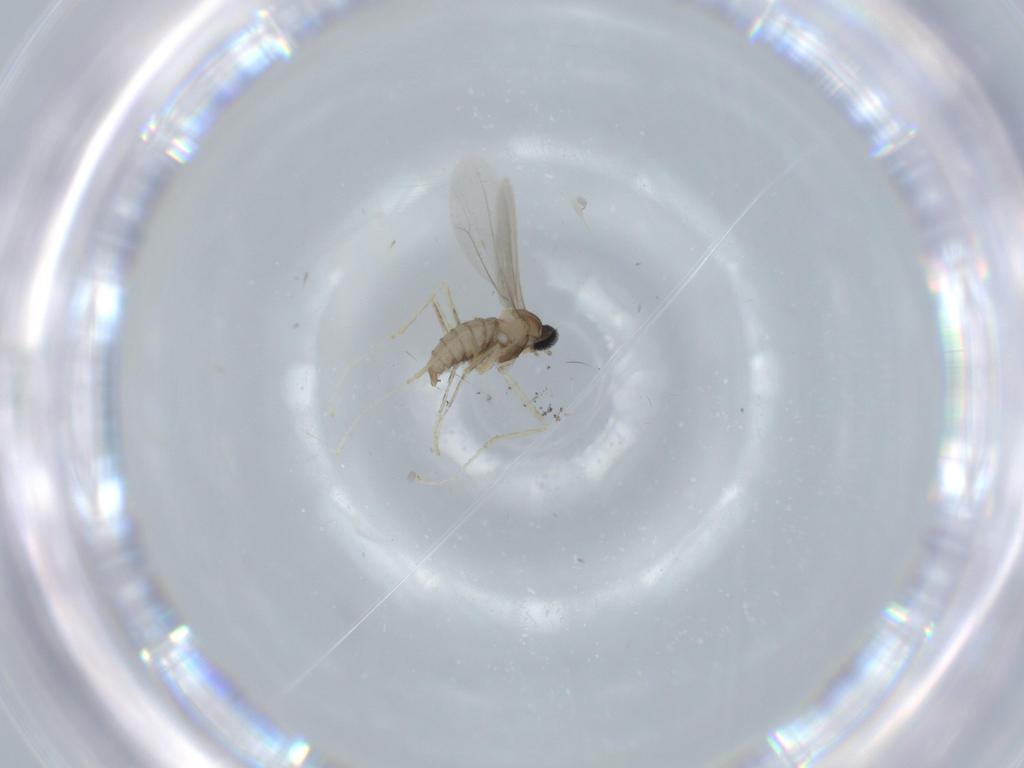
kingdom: Animalia
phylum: Arthropoda
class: Insecta
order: Diptera
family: Cecidomyiidae
